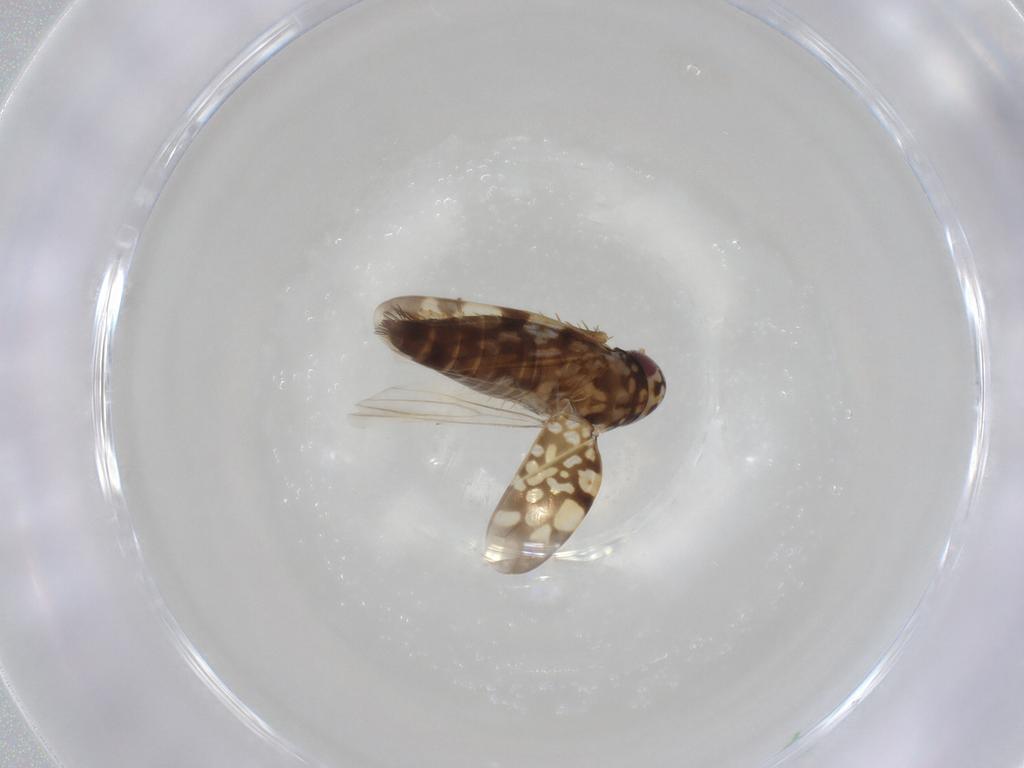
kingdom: Animalia
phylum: Arthropoda
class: Insecta
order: Hemiptera
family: Cicadellidae
